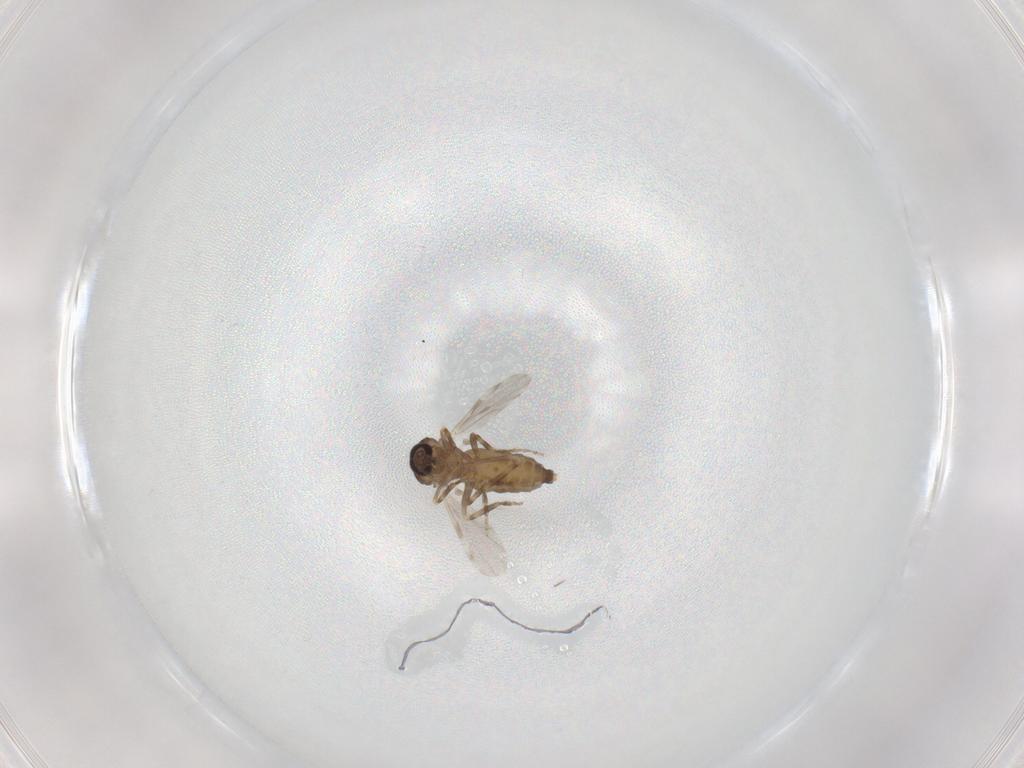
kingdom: Animalia
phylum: Arthropoda
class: Insecta
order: Diptera
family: Ceratopogonidae
